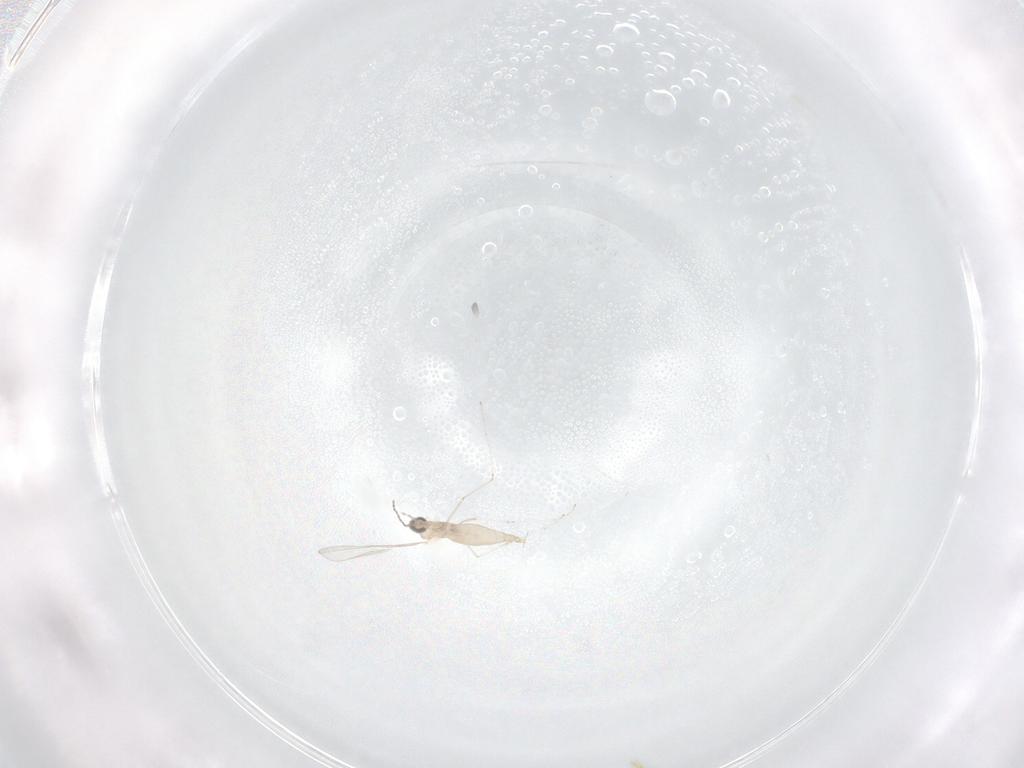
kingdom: Animalia
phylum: Arthropoda
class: Insecta
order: Diptera
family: Cecidomyiidae
